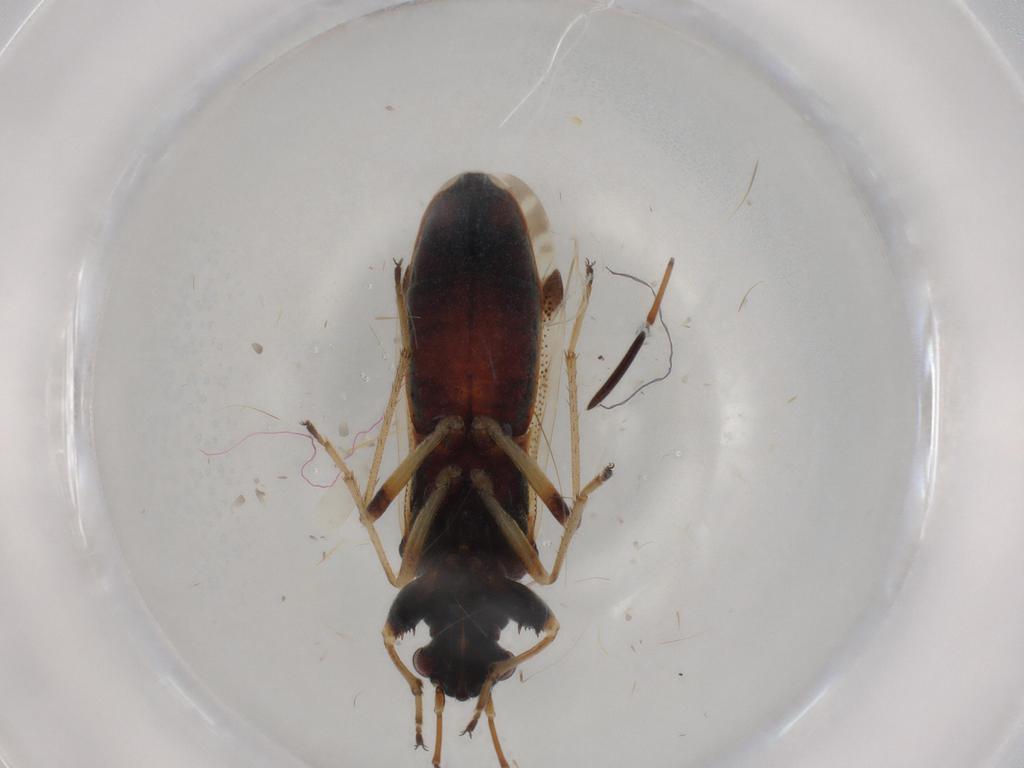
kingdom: Animalia
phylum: Arthropoda
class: Insecta
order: Hemiptera
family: Rhyparochromidae
